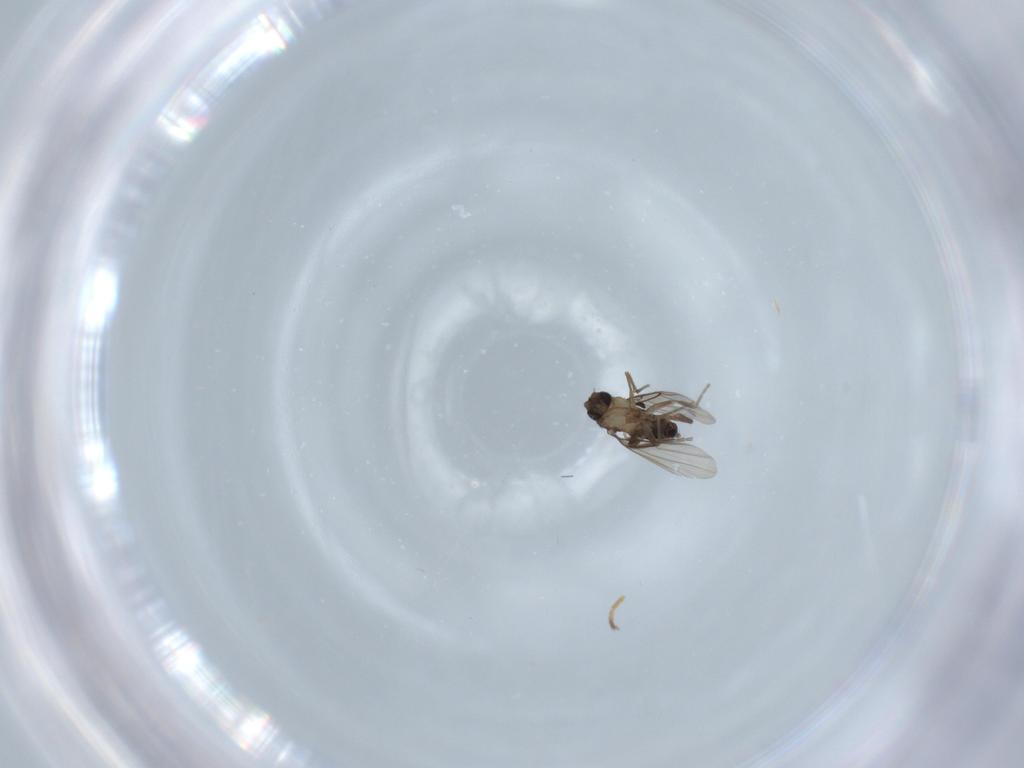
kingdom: Animalia
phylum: Arthropoda
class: Insecta
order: Diptera
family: Chloropidae
